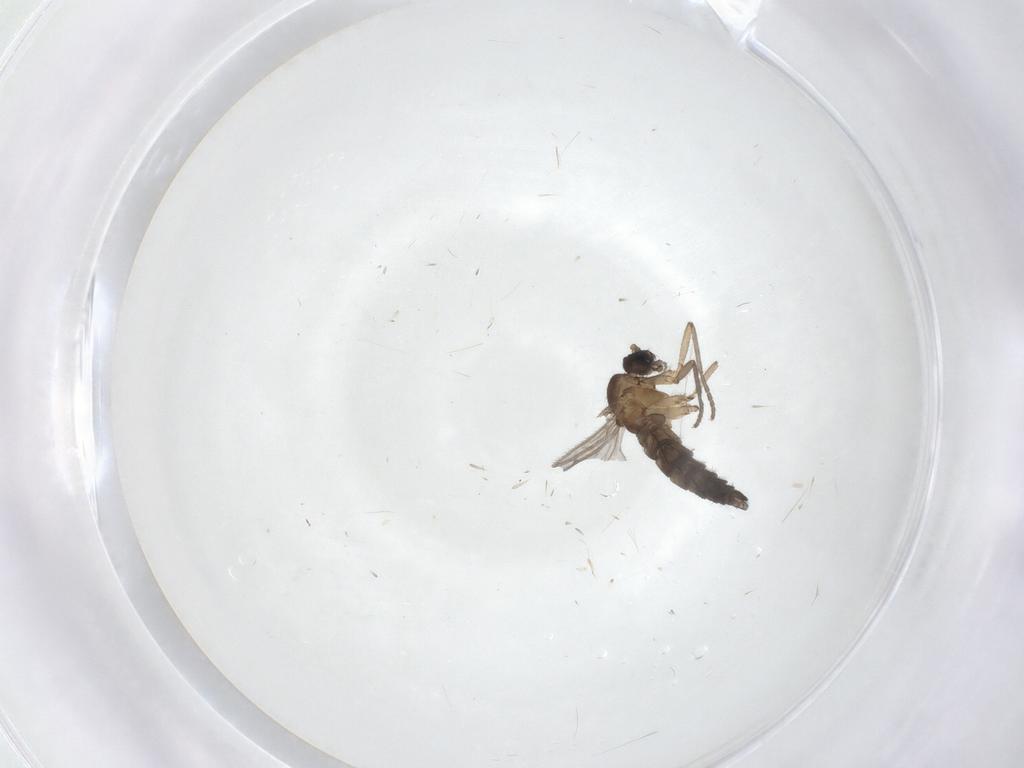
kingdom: Animalia
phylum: Arthropoda
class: Insecta
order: Diptera
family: Sciaridae
